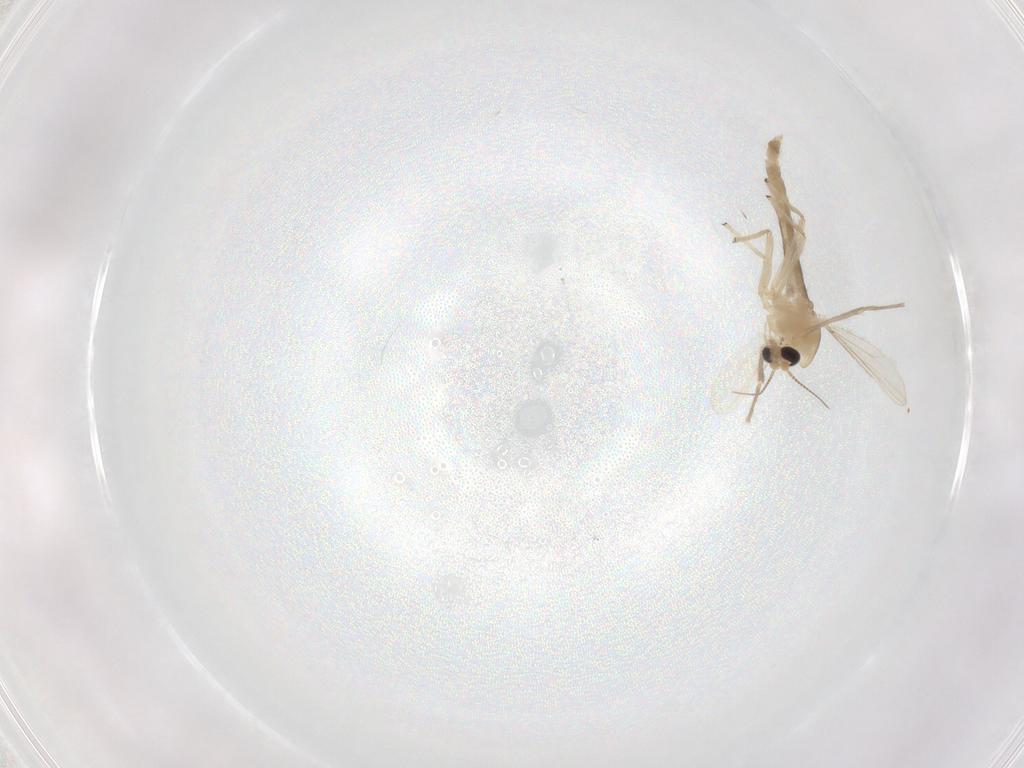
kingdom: Animalia
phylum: Arthropoda
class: Insecta
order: Diptera
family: Chironomidae
